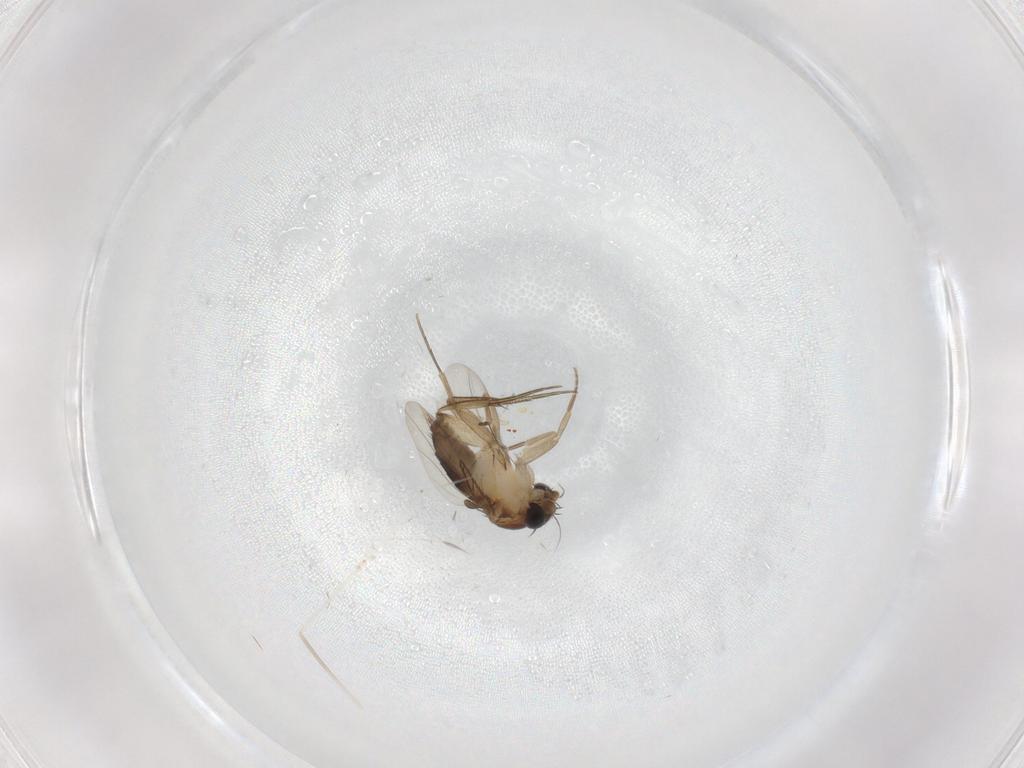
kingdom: Animalia
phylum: Arthropoda
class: Insecta
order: Diptera
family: Phoridae
